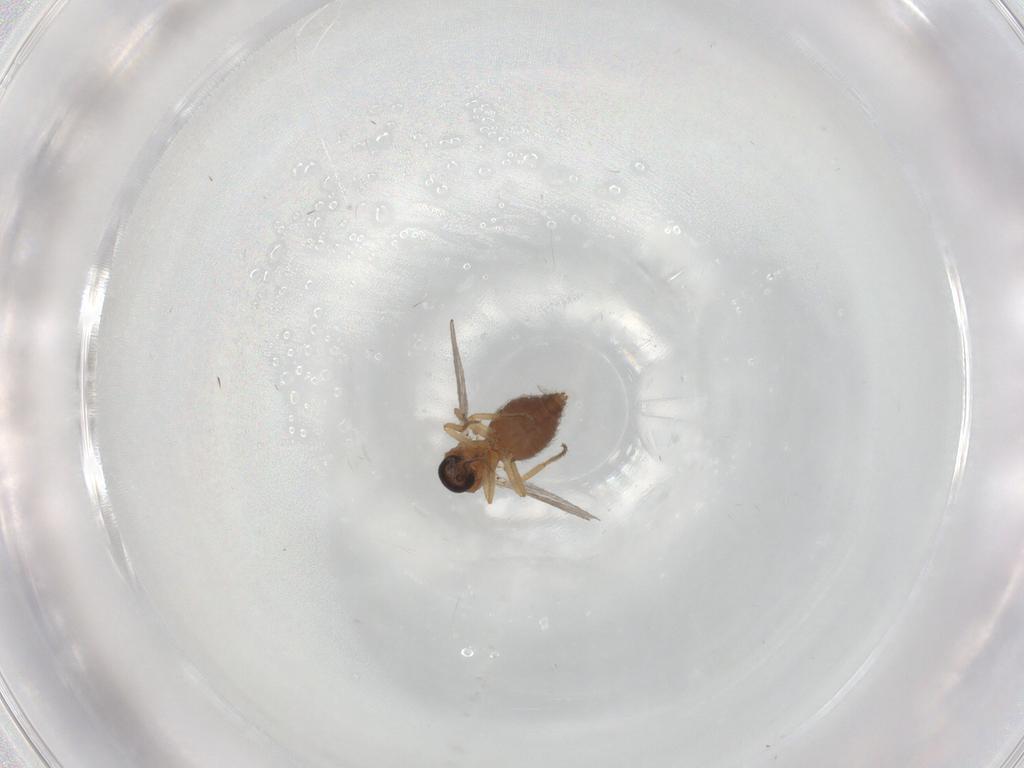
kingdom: Animalia
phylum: Arthropoda
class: Insecta
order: Diptera
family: Ceratopogonidae
